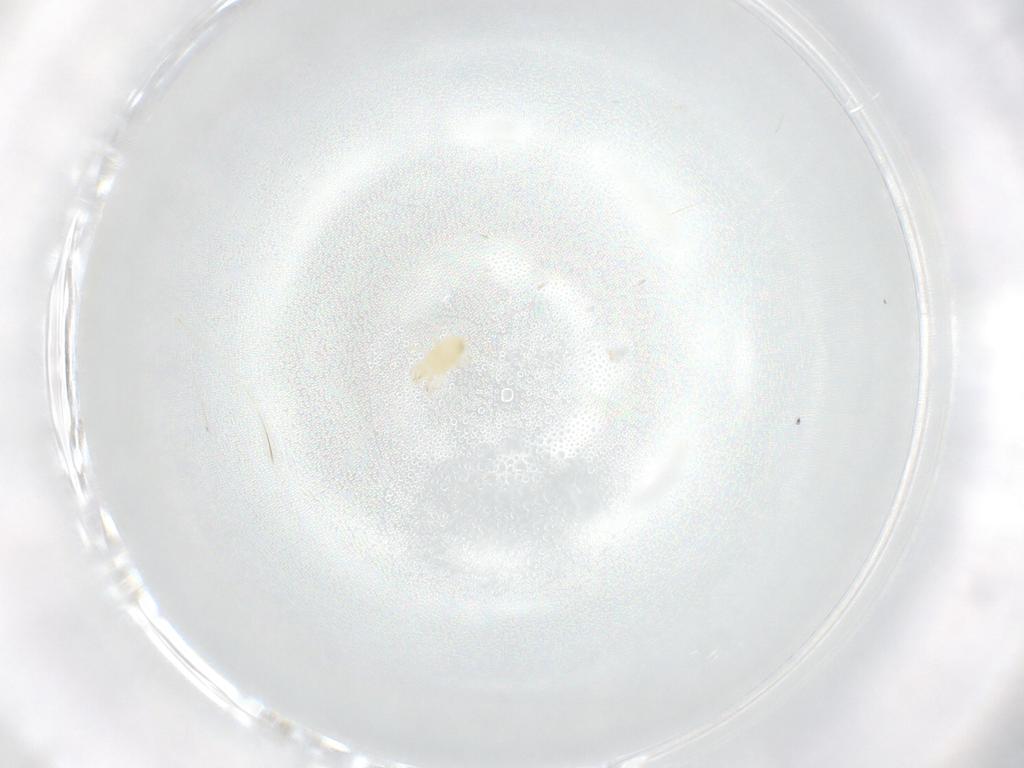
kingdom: Animalia
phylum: Arthropoda
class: Arachnida
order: Mesostigmata
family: Phytoseiidae
